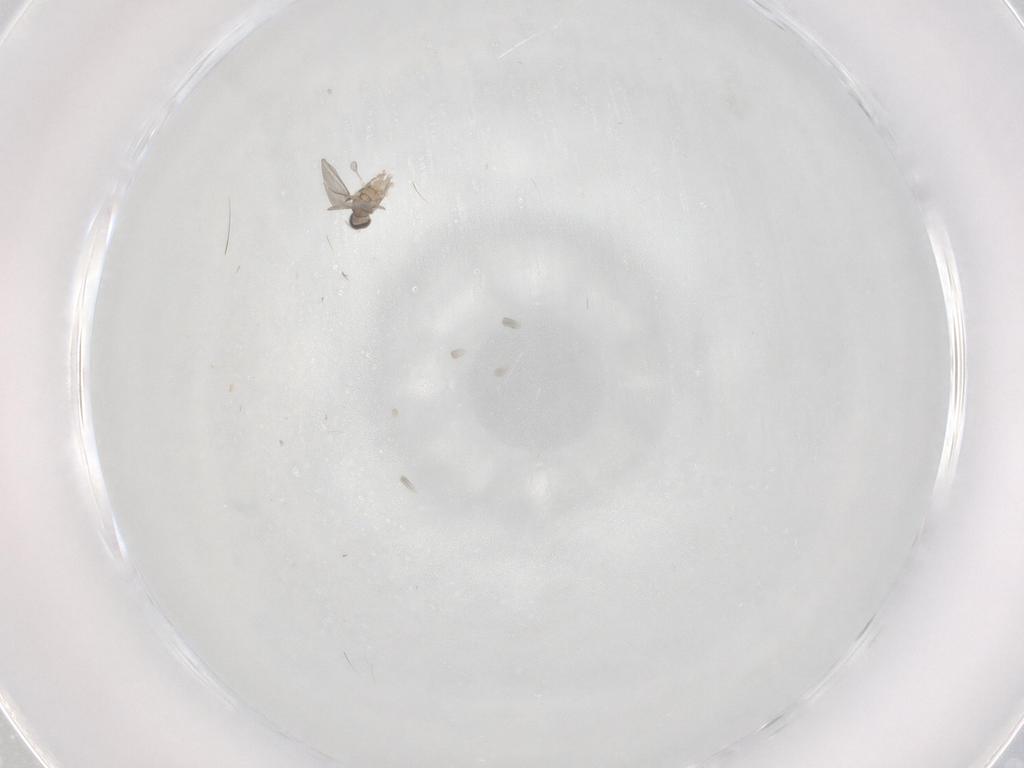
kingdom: Animalia
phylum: Arthropoda
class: Insecta
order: Diptera
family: Cecidomyiidae
